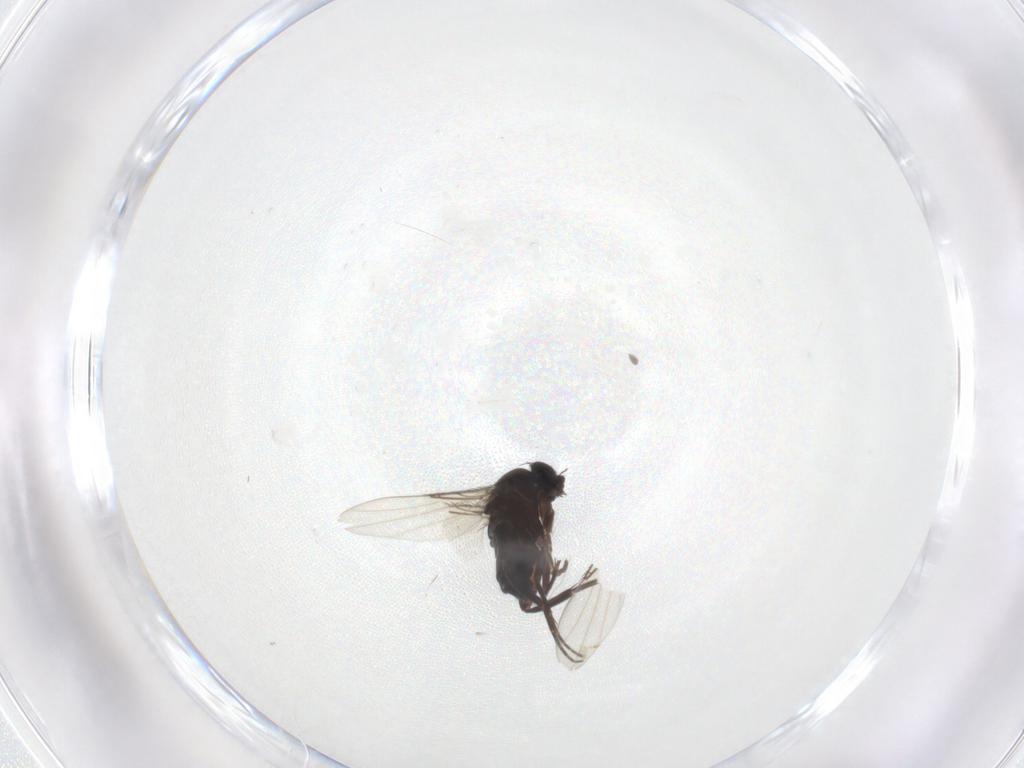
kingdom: Animalia
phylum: Arthropoda
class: Insecta
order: Diptera
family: Phoridae
